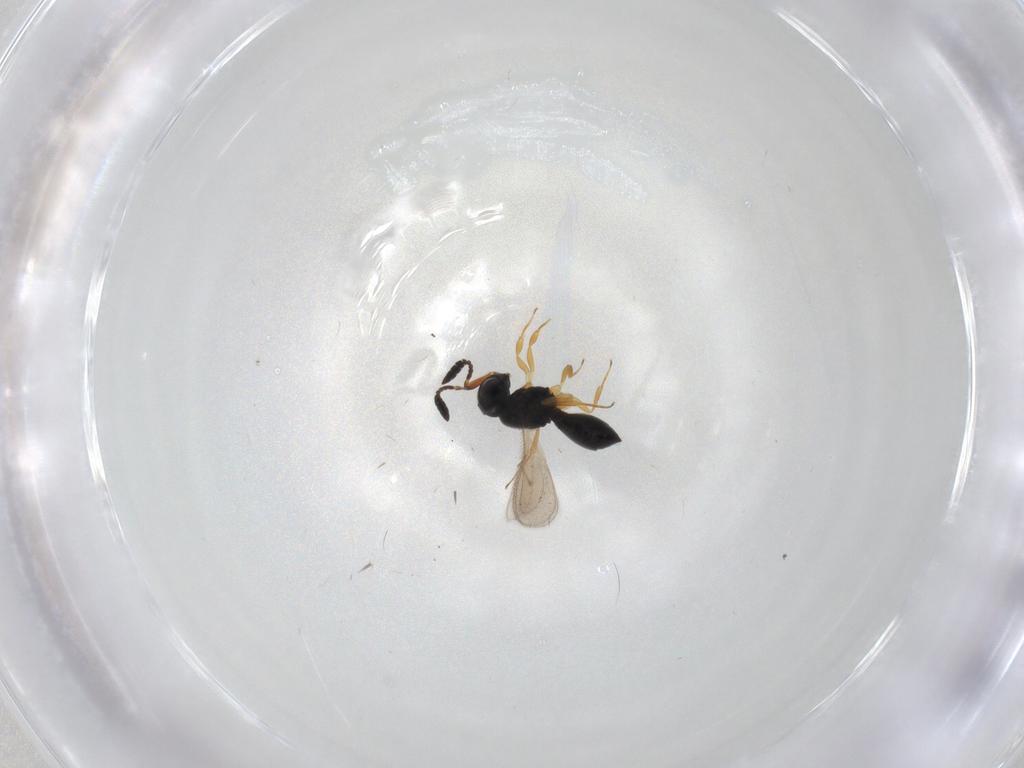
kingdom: Animalia
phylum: Arthropoda
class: Insecta
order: Hymenoptera
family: Scelionidae
